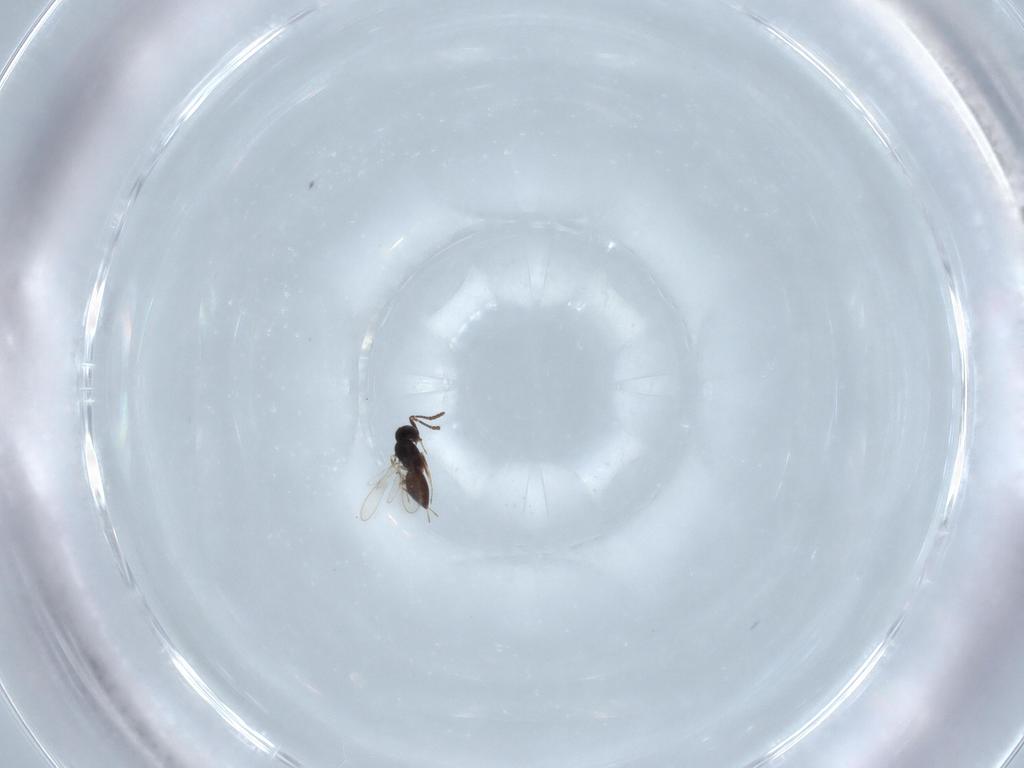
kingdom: Animalia
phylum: Arthropoda
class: Insecta
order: Hymenoptera
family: Scelionidae
